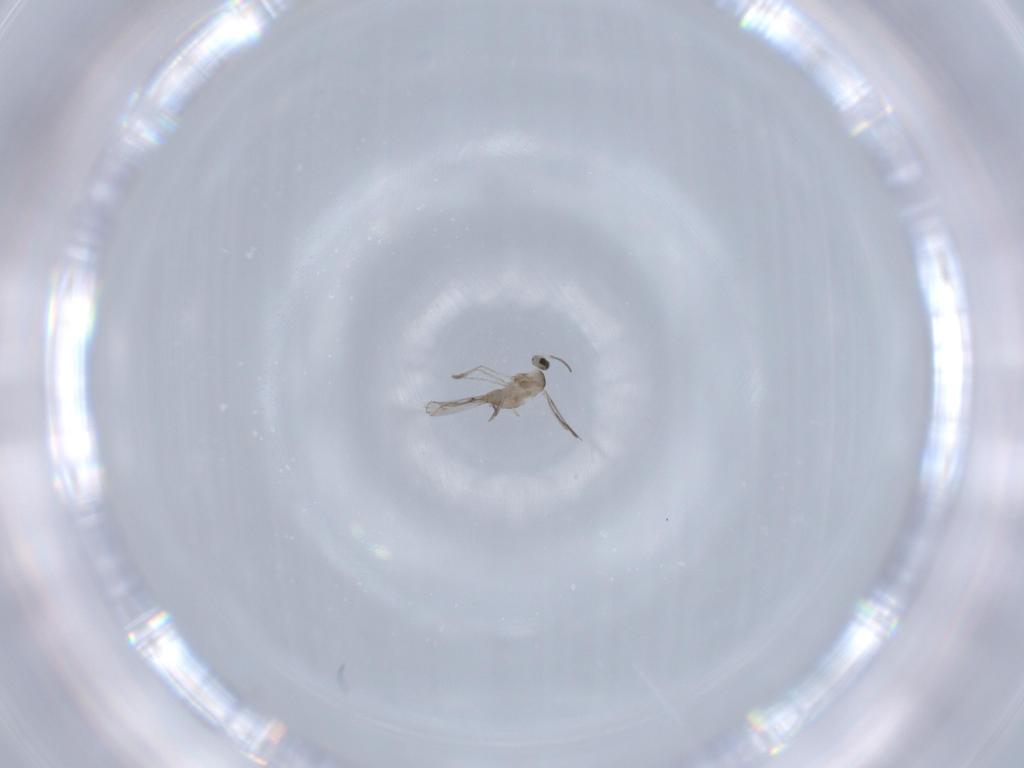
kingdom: Animalia
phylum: Arthropoda
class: Insecta
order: Diptera
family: Cecidomyiidae
